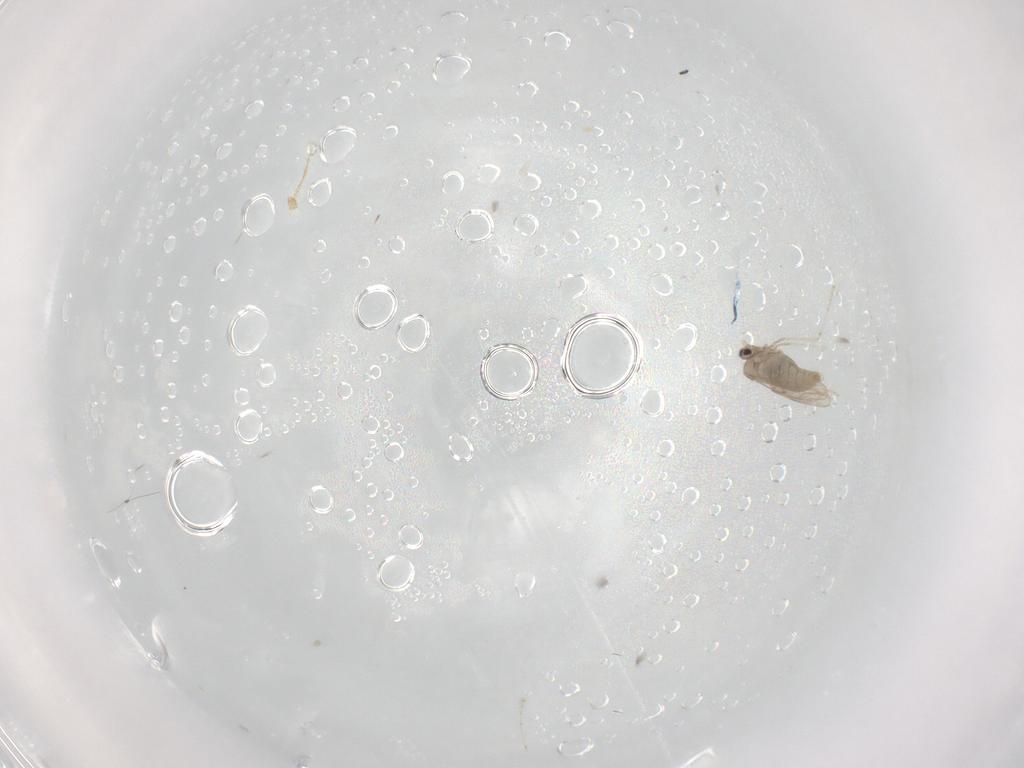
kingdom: Animalia
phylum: Arthropoda
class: Insecta
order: Diptera
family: Cecidomyiidae
